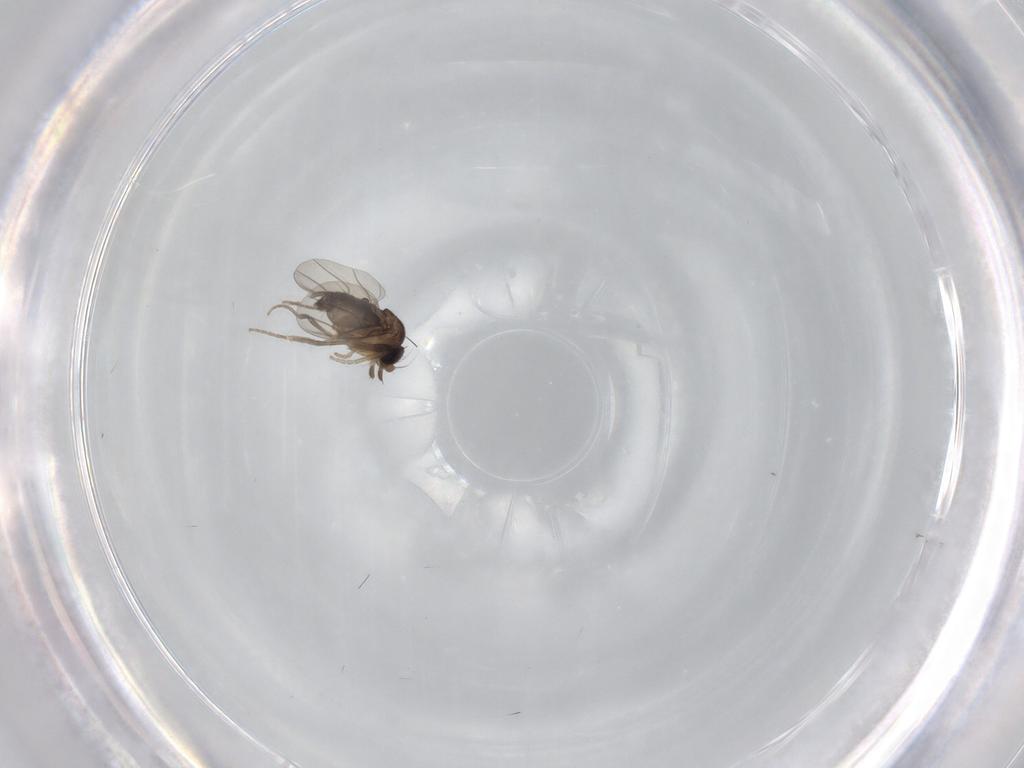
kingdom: Animalia
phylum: Arthropoda
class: Insecta
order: Diptera
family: Cecidomyiidae
